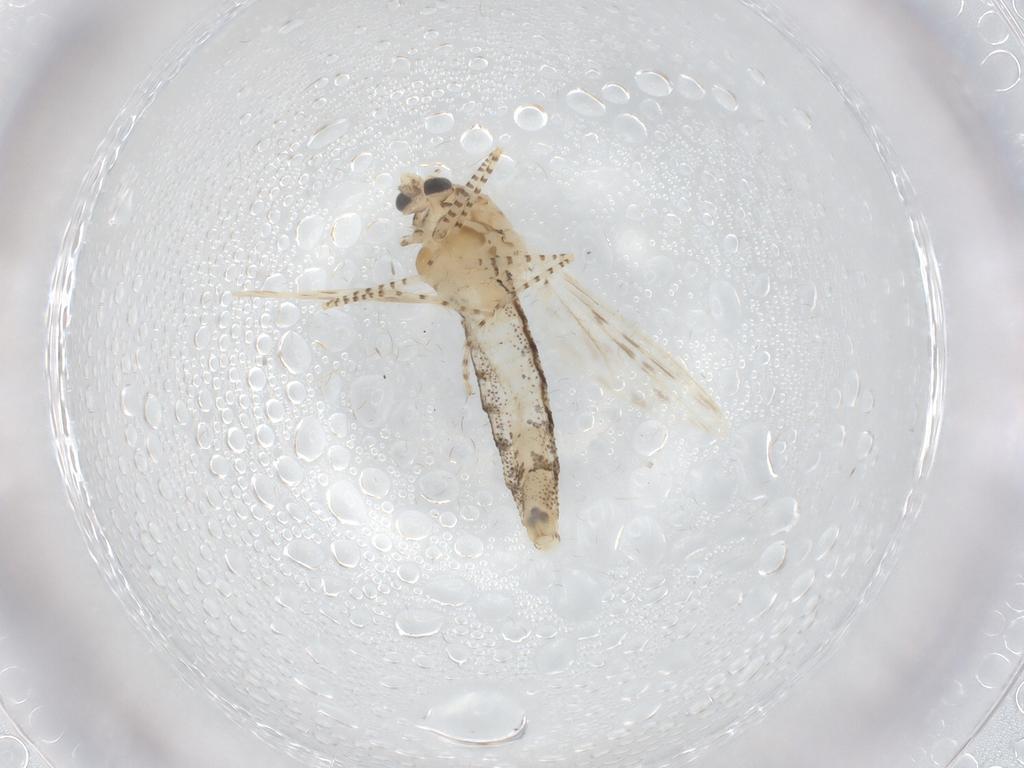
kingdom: Animalia
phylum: Arthropoda
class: Insecta
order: Diptera
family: Chaoboridae
